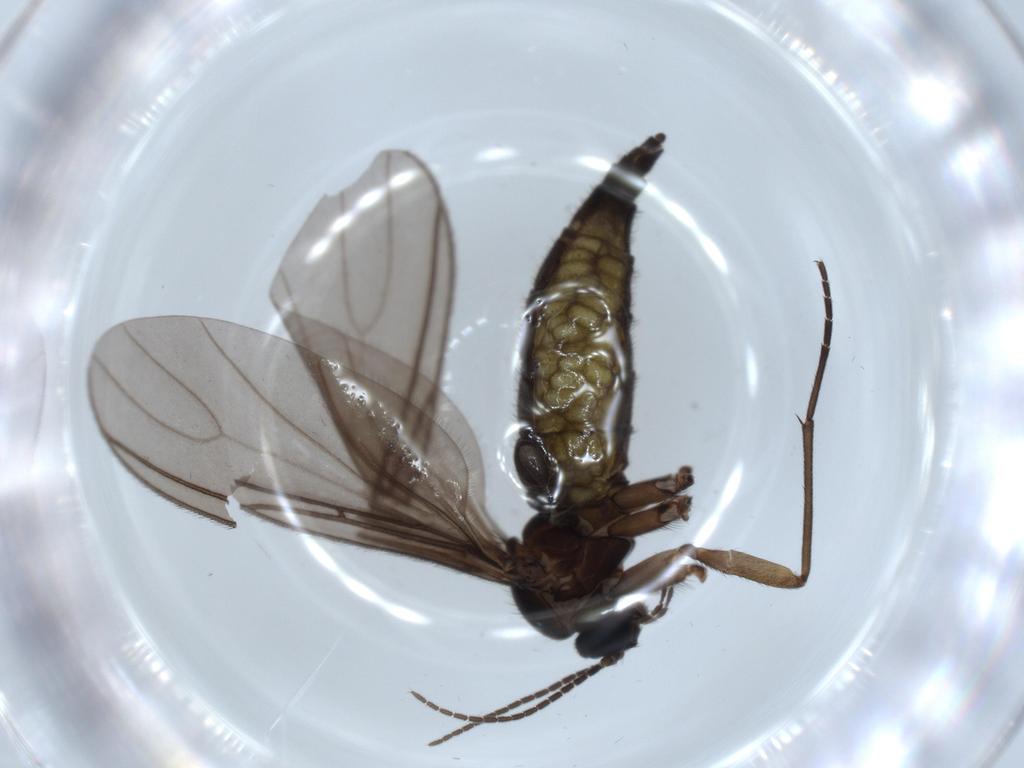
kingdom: Animalia
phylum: Arthropoda
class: Insecta
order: Diptera
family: Sciaridae
